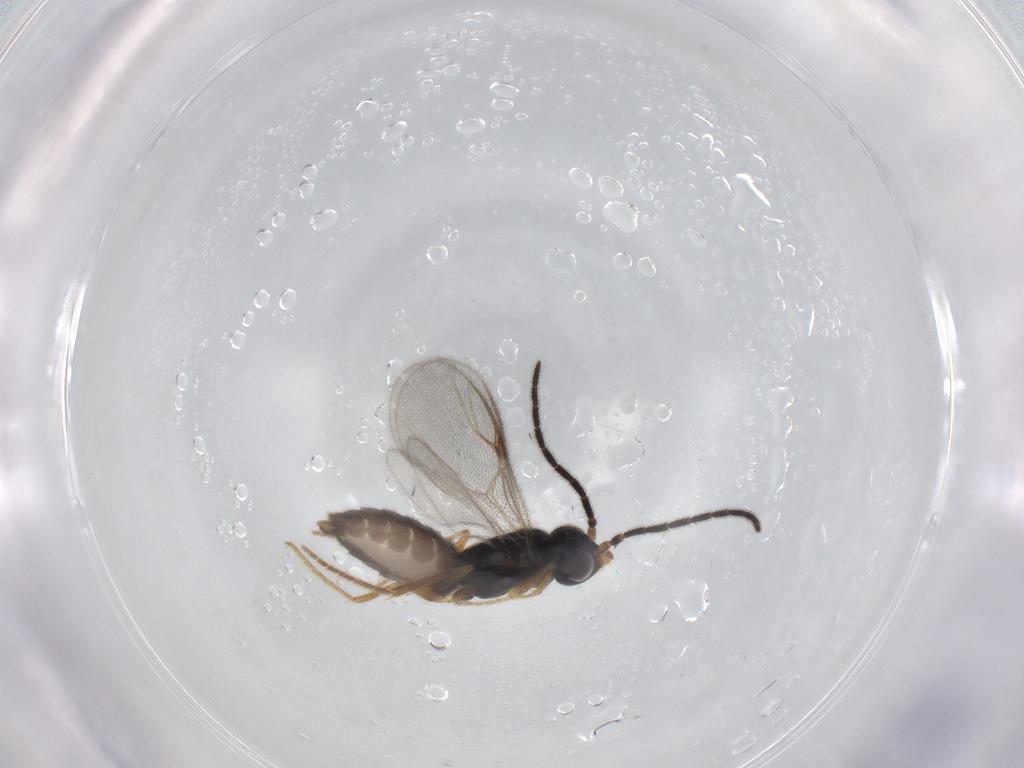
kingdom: Animalia
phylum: Arthropoda
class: Insecta
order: Hymenoptera
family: Dryinidae
